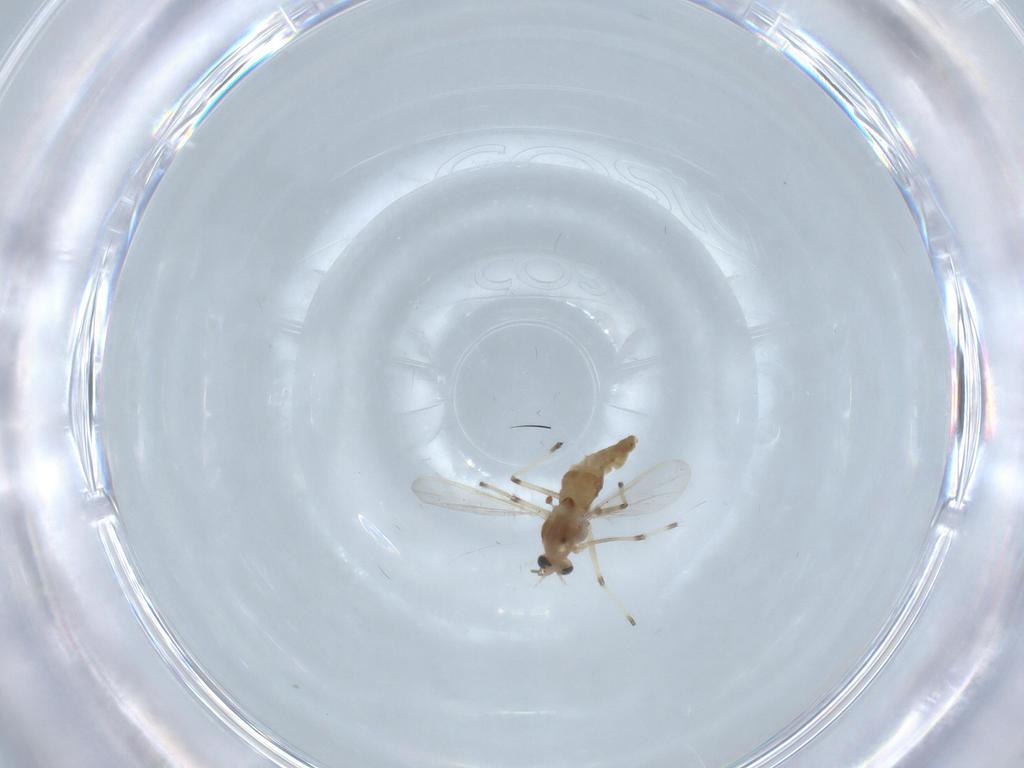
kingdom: Animalia
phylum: Arthropoda
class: Insecta
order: Diptera
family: Chironomidae
